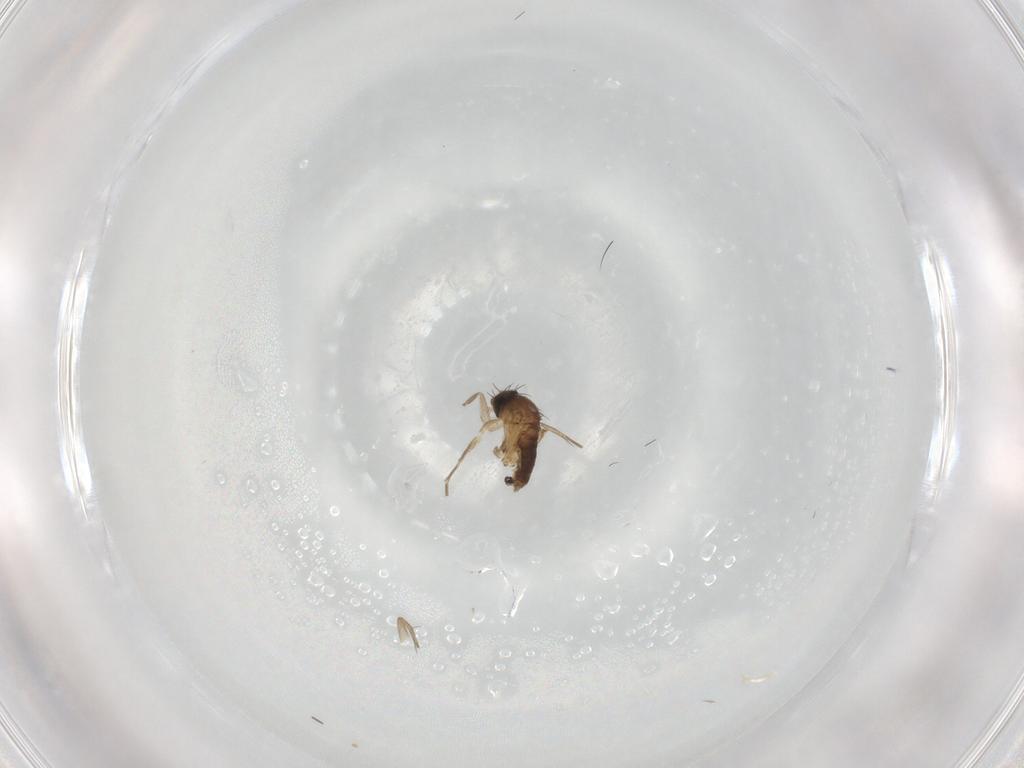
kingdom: Animalia
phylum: Arthropoda
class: Insecta
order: Diptera
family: Phoridae
